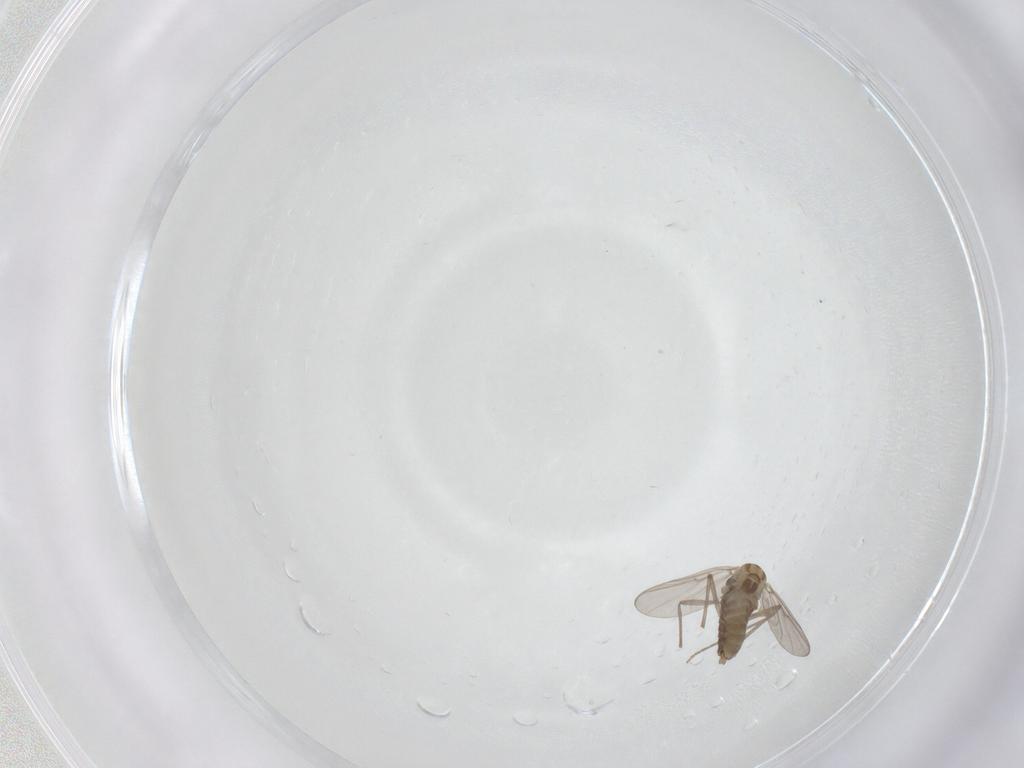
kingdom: Animalia
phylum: Arthropoda
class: Insecta
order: Diptera
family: Chironomidae
